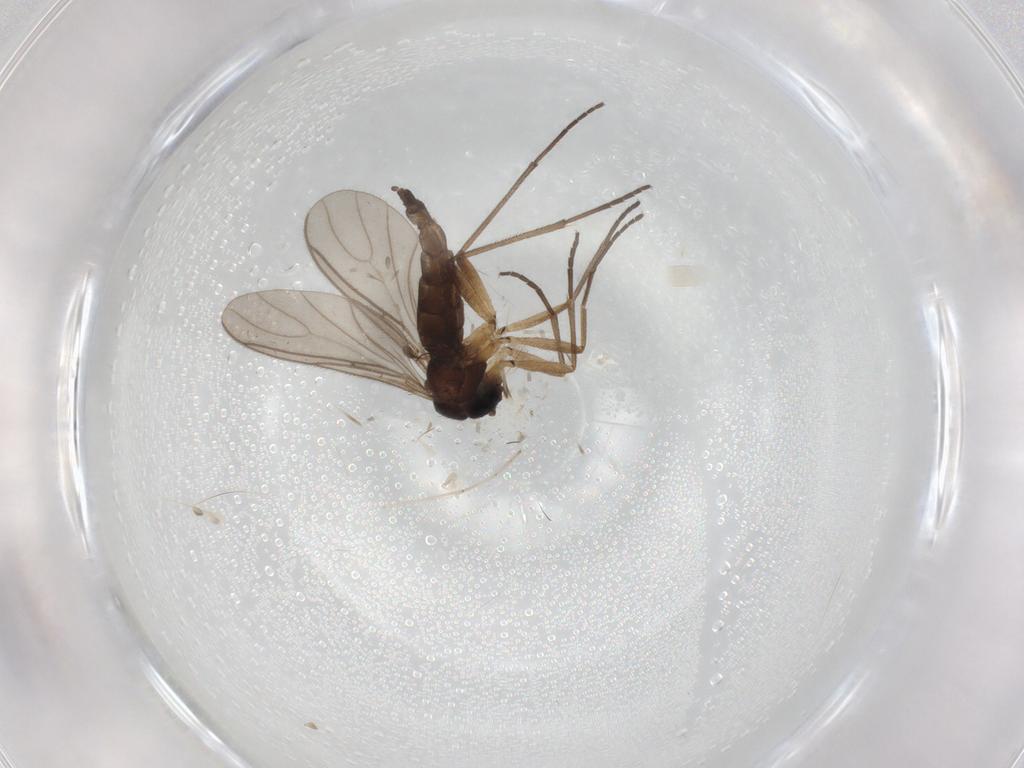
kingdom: Animalia
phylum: Arthropoda
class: Insecta
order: Diptera
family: Sciaridae
